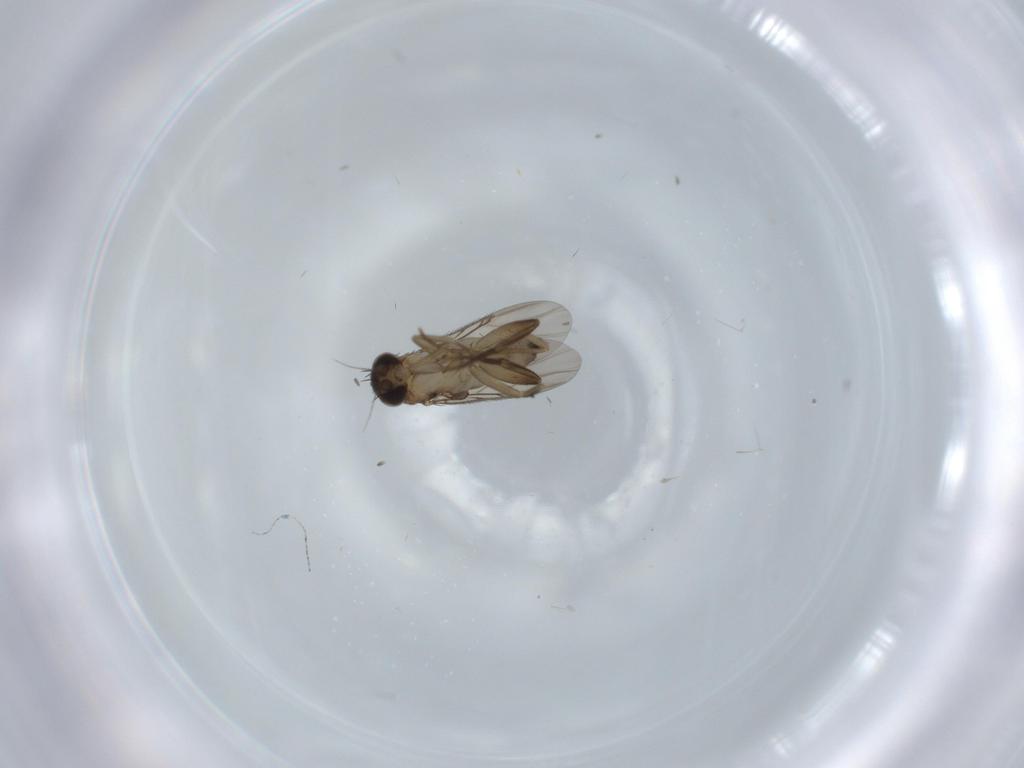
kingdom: Animalia
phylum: Arthropoda
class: Insecta
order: Diptera
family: Phoridae
